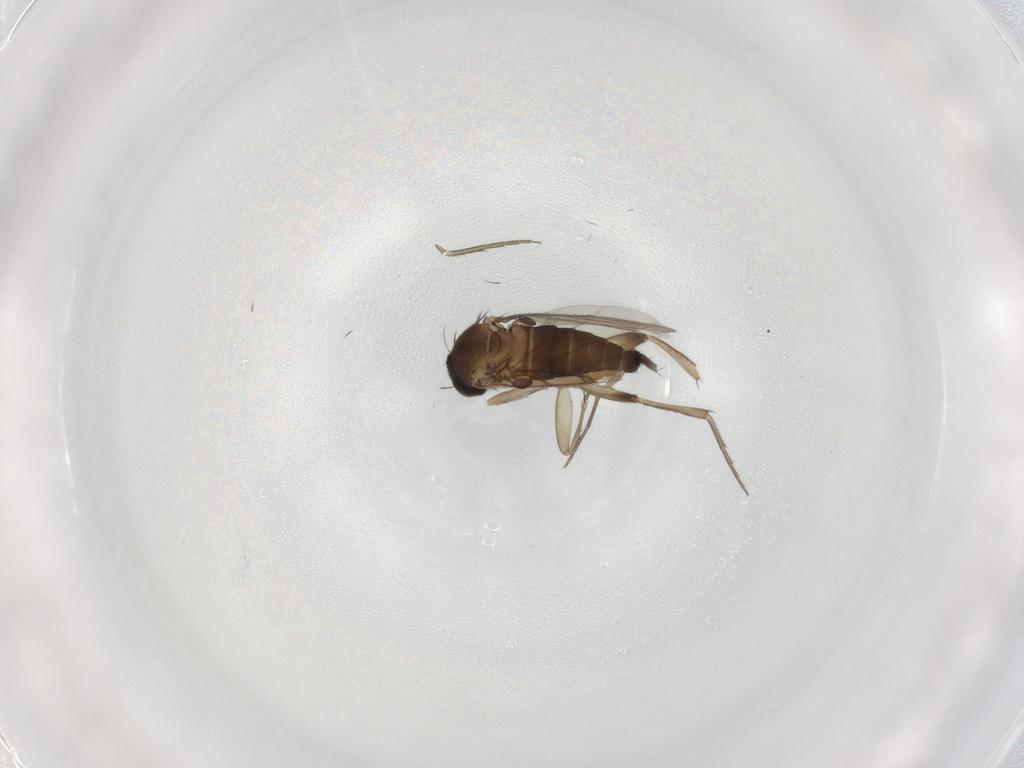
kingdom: Animalia
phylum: Arthropoda
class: Insecta
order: Diptera
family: Phoridae
